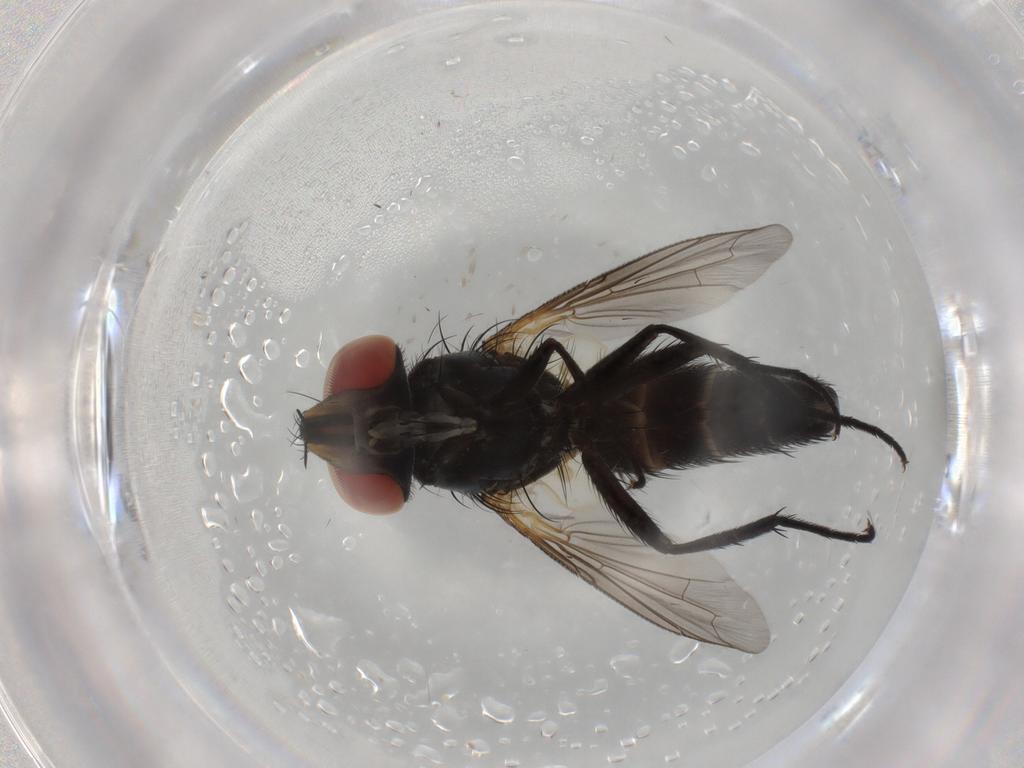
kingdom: Animalia
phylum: Arthropoda
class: Insecta
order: Diptera
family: Anthomyiidae
